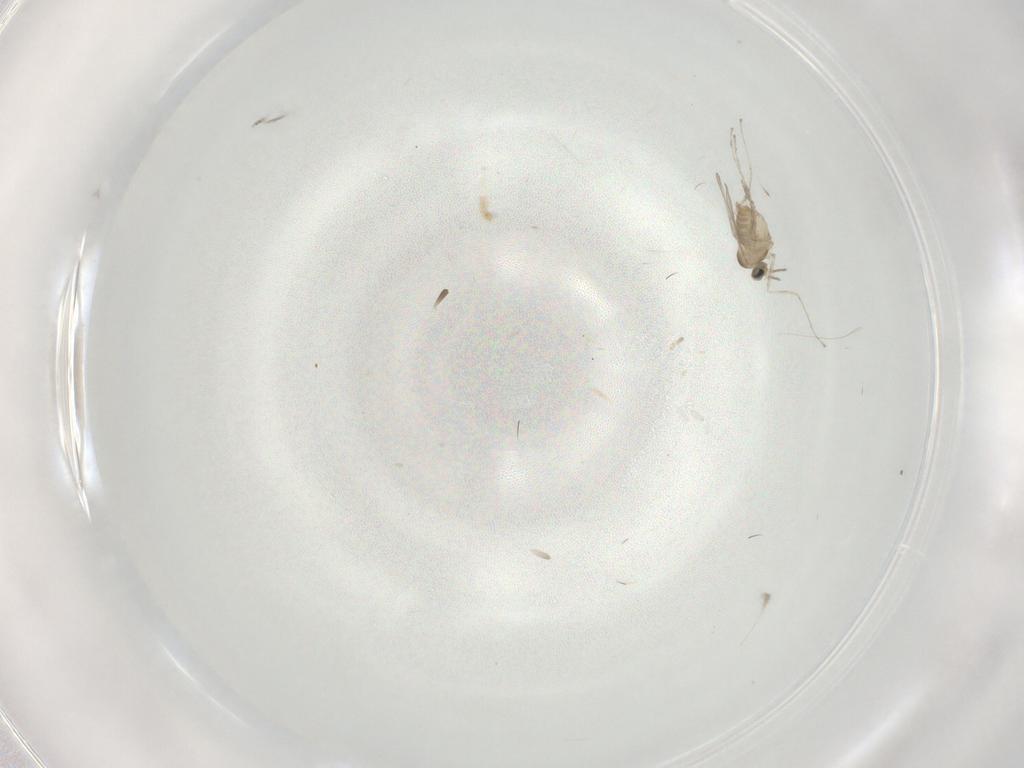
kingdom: Animalia
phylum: Arthropoda
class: Insecta
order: Diptera
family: Cecidomyiidae
